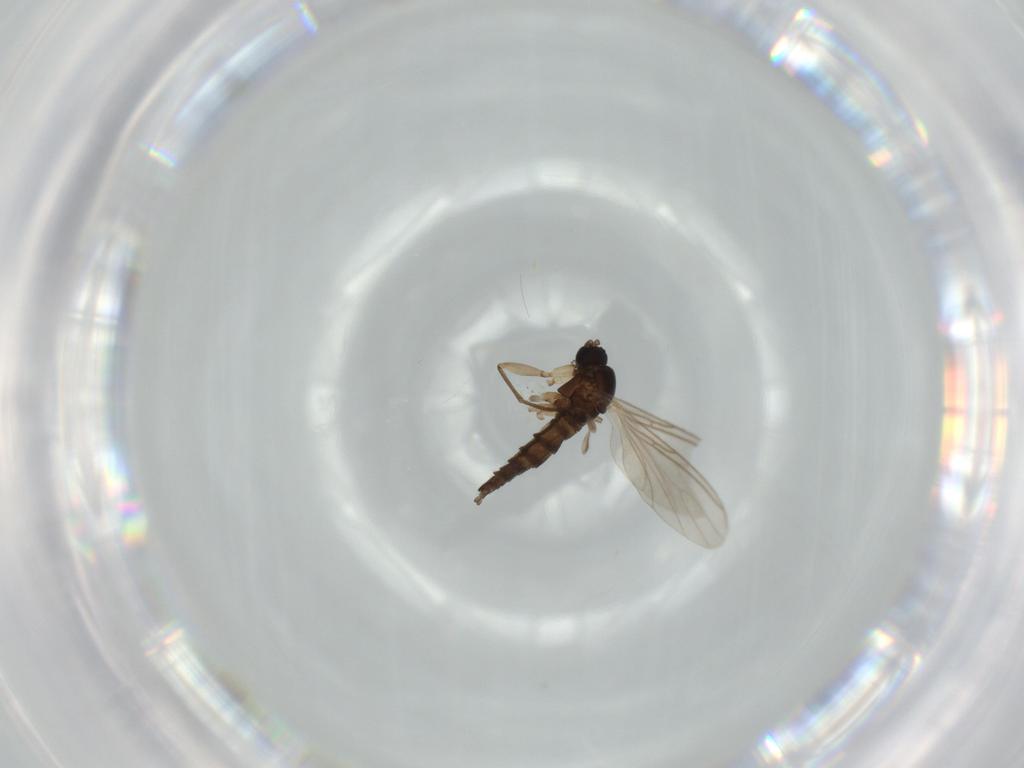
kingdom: Animalia
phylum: Arthropoda
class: Insecta
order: Diptera
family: Sciaridae
